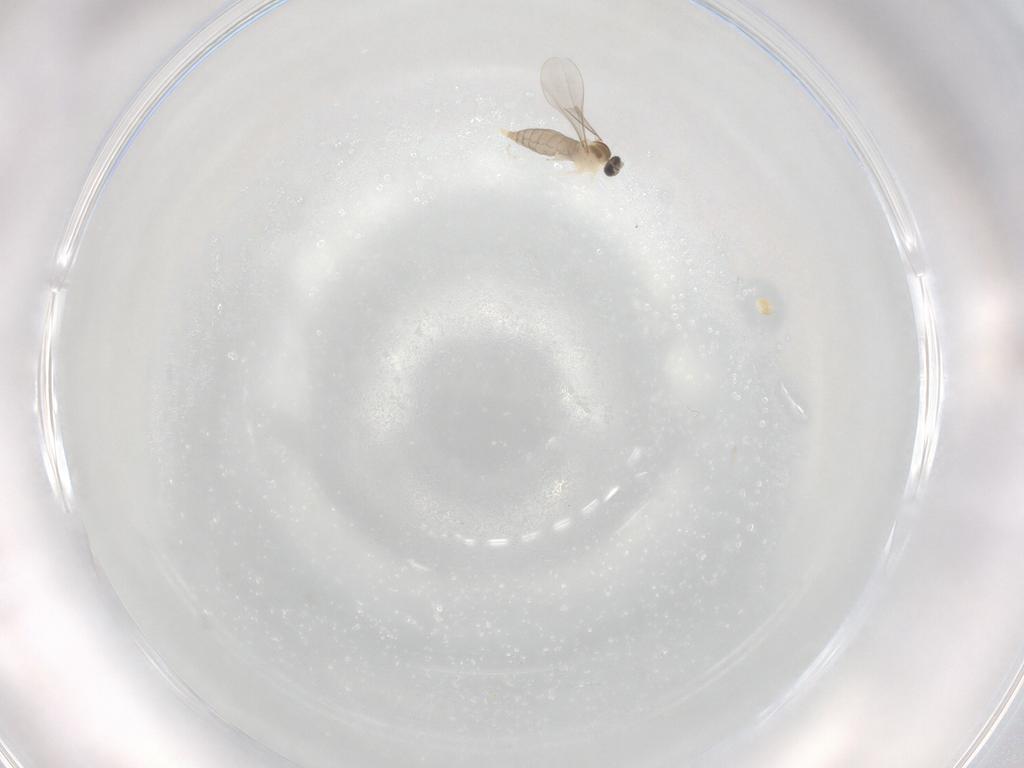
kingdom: Animalia
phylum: Arthropoda
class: Insecta
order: Diptera
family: Cecidomyiidae
